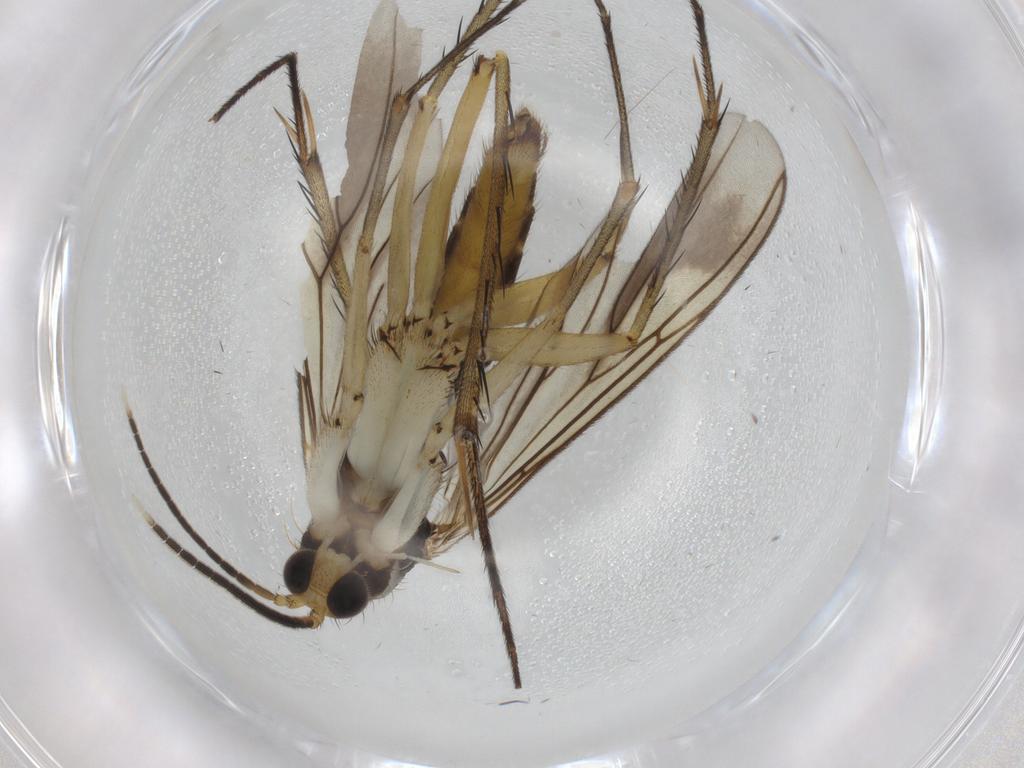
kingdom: Animalia
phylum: Arthropoda
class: Insecta
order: Diptera
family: Mycetophilidae
